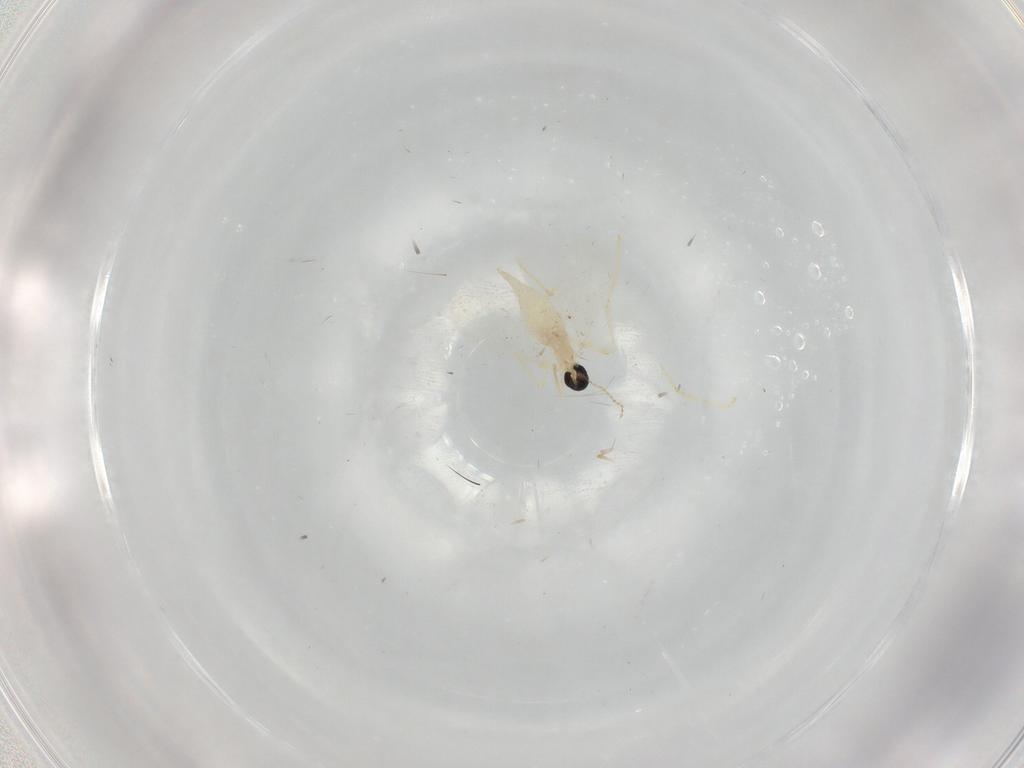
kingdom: Animalia
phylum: Arthropoda
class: Insecta
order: Diptera
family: Cecidomyiidae
